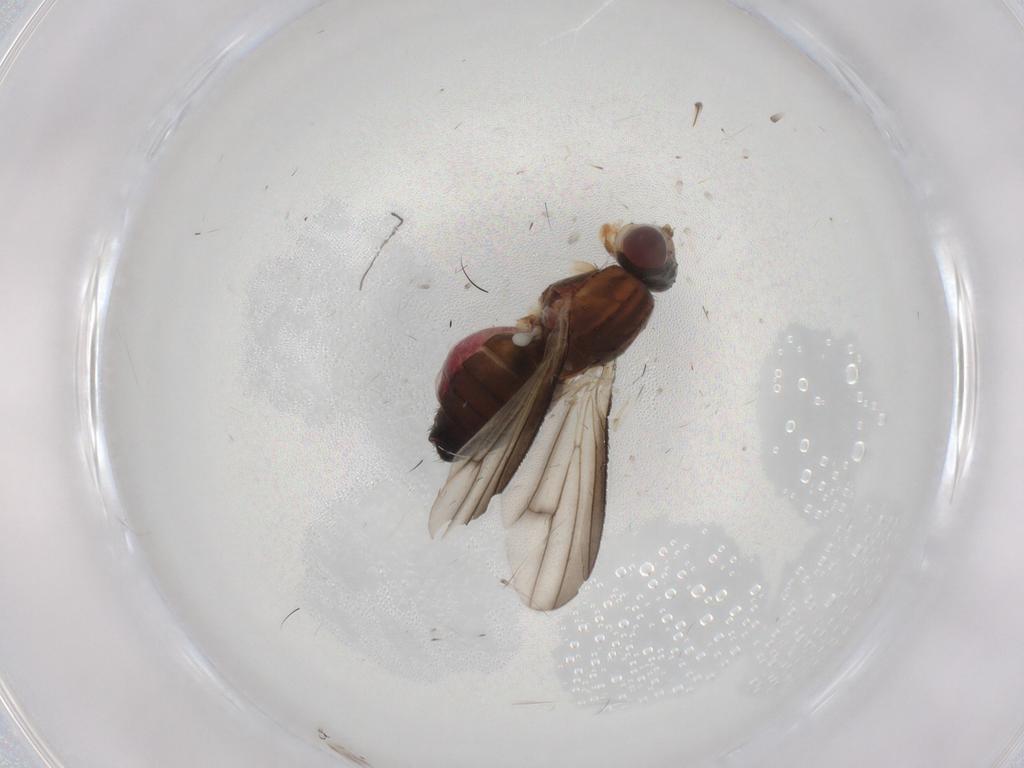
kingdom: Animalia
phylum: Arthropoda
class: Insecta
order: Diptera
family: Heleomyzidae
